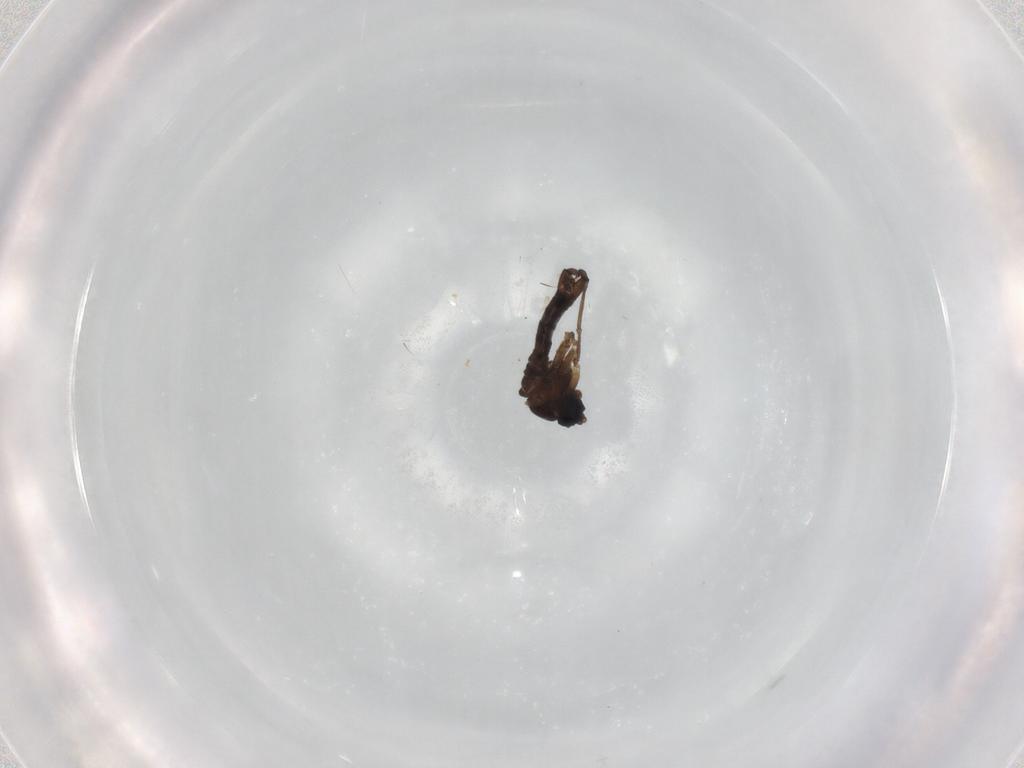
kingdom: Animalia
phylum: Arthropoda
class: Insecta
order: Diptera
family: Sciaridae
